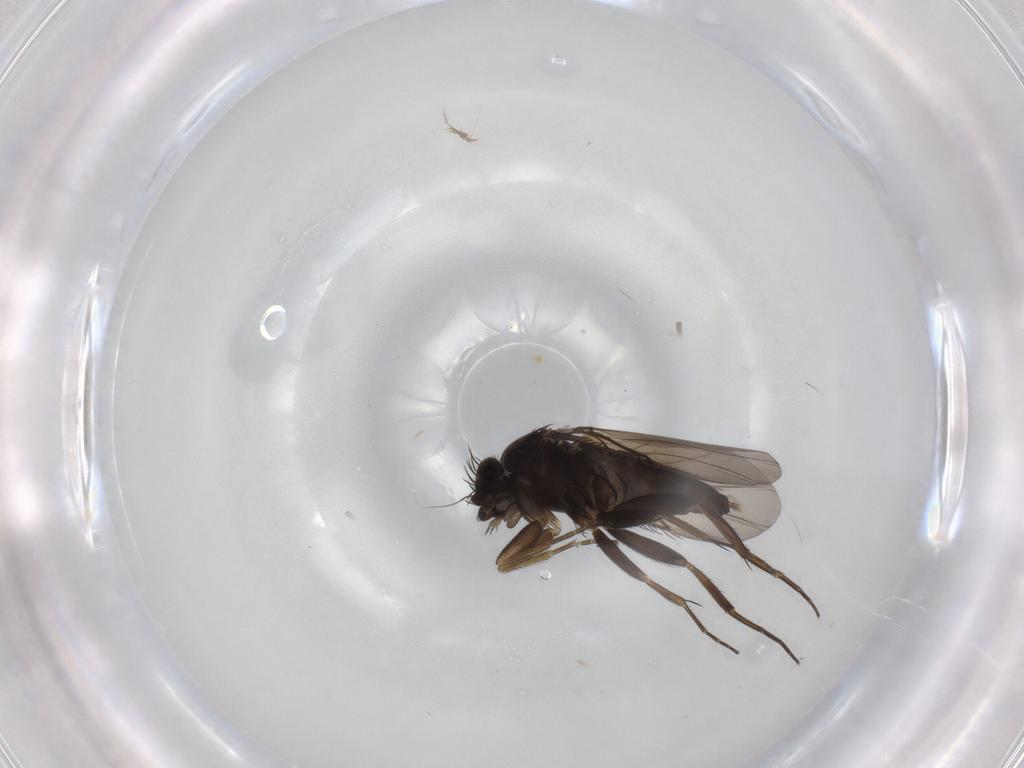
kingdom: Animalia
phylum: Arthropoda
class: Insecta
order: Diptera
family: Phoridae
